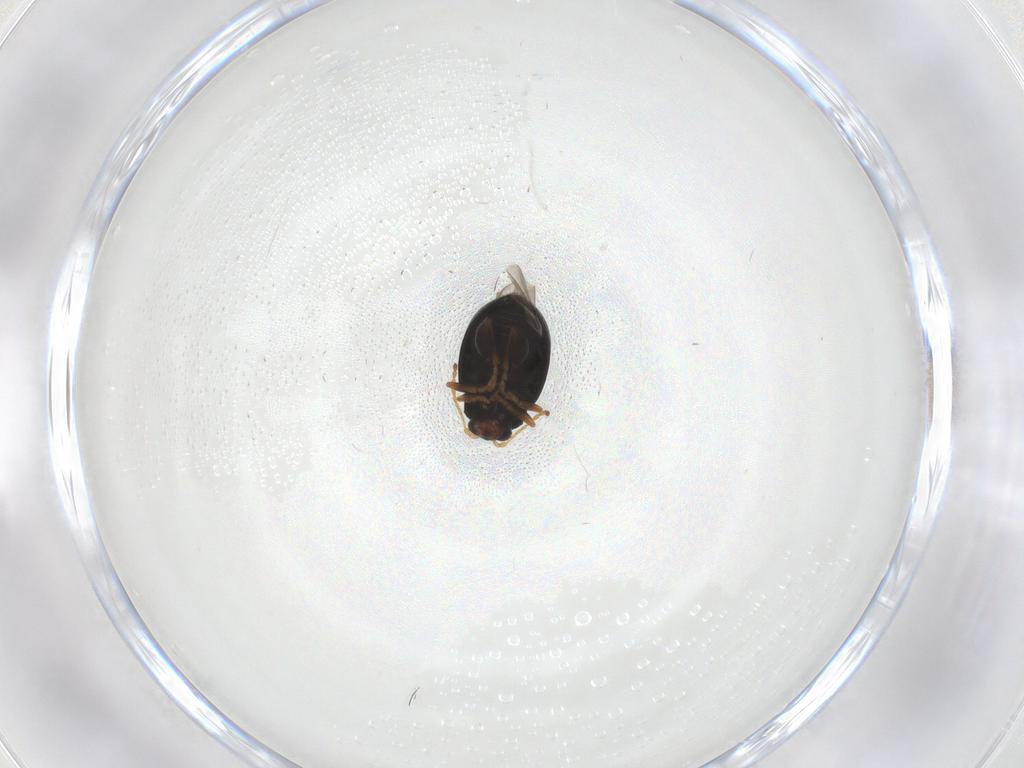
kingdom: Animalia
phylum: Arthropoda
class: Insecta
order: Coleoptera
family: Chrysomelidae
